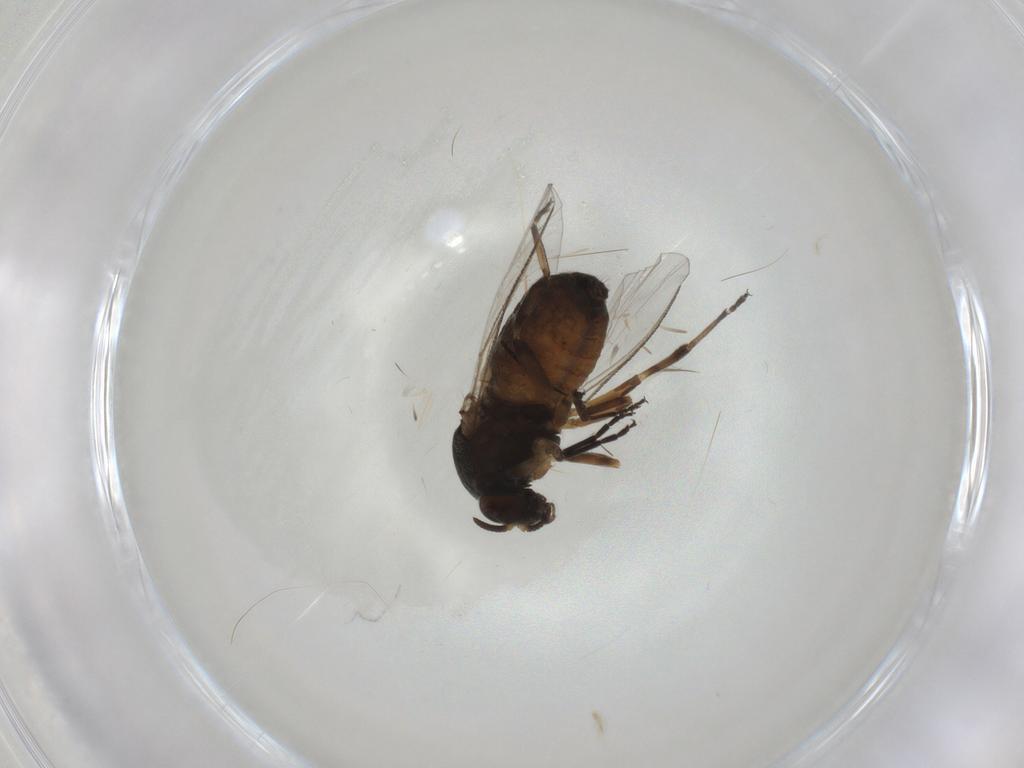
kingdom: Animalia
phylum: Arthropoda
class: Insecta
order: Diptera
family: Simuliidae
